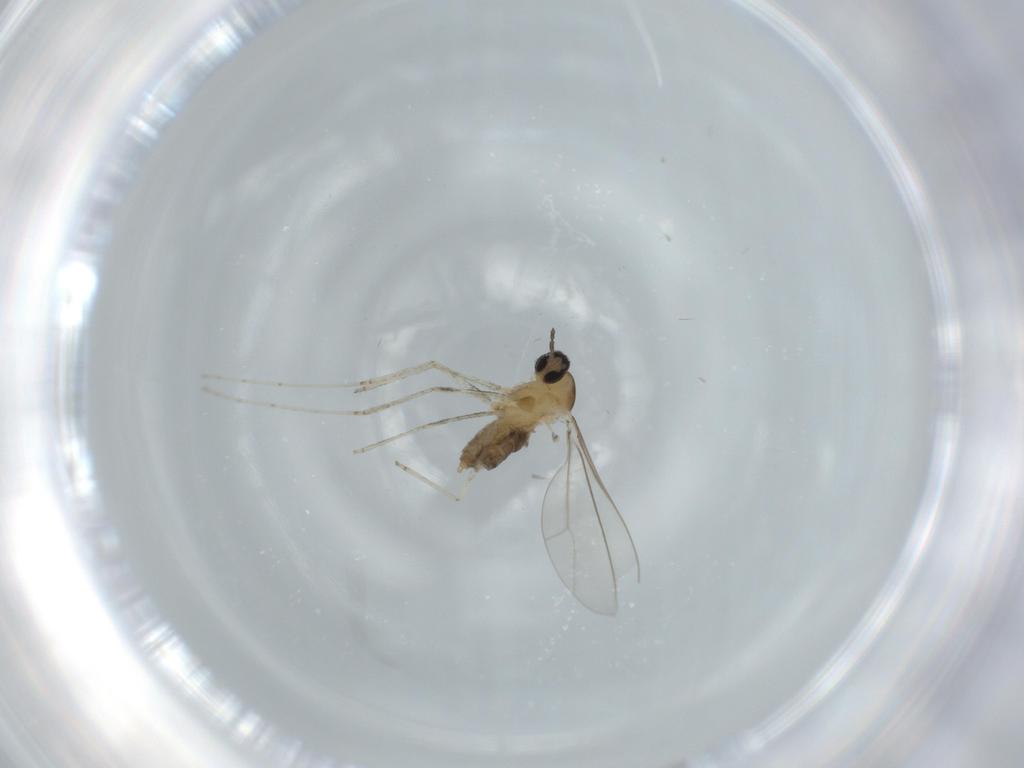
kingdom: Animalia
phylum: Arthropoda
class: Insecta
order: Diptera
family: Cecidomyiidae
